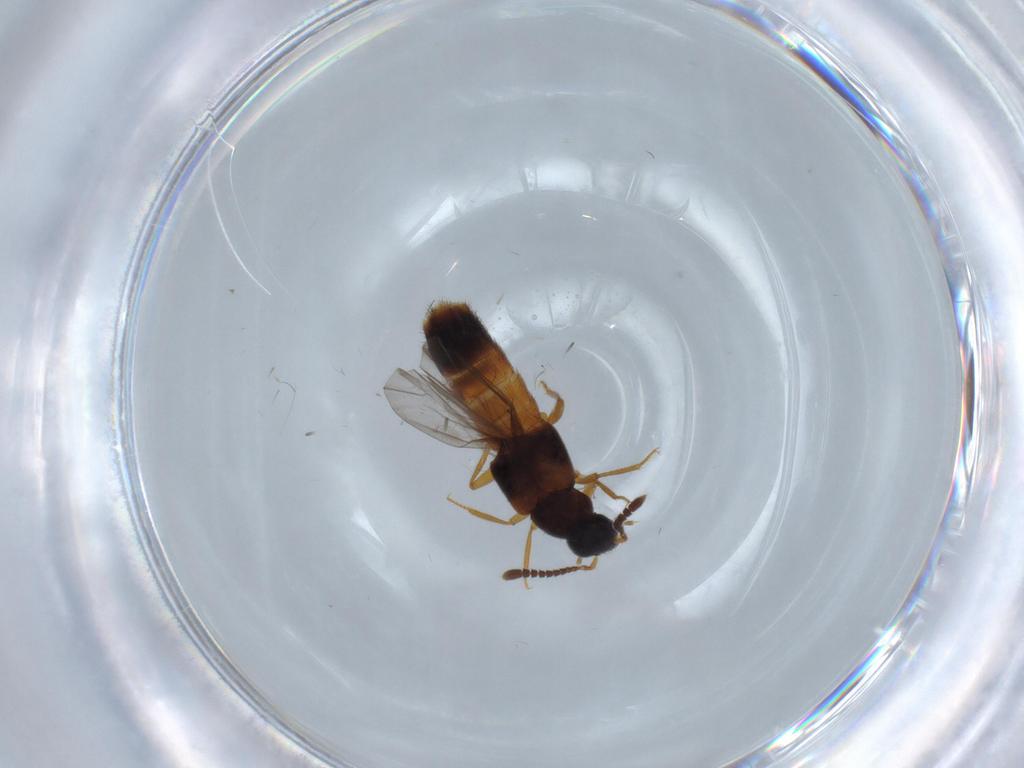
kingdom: Animalia
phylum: Arthropoda
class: Insecta
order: Coleoptera
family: Staphylinidae
